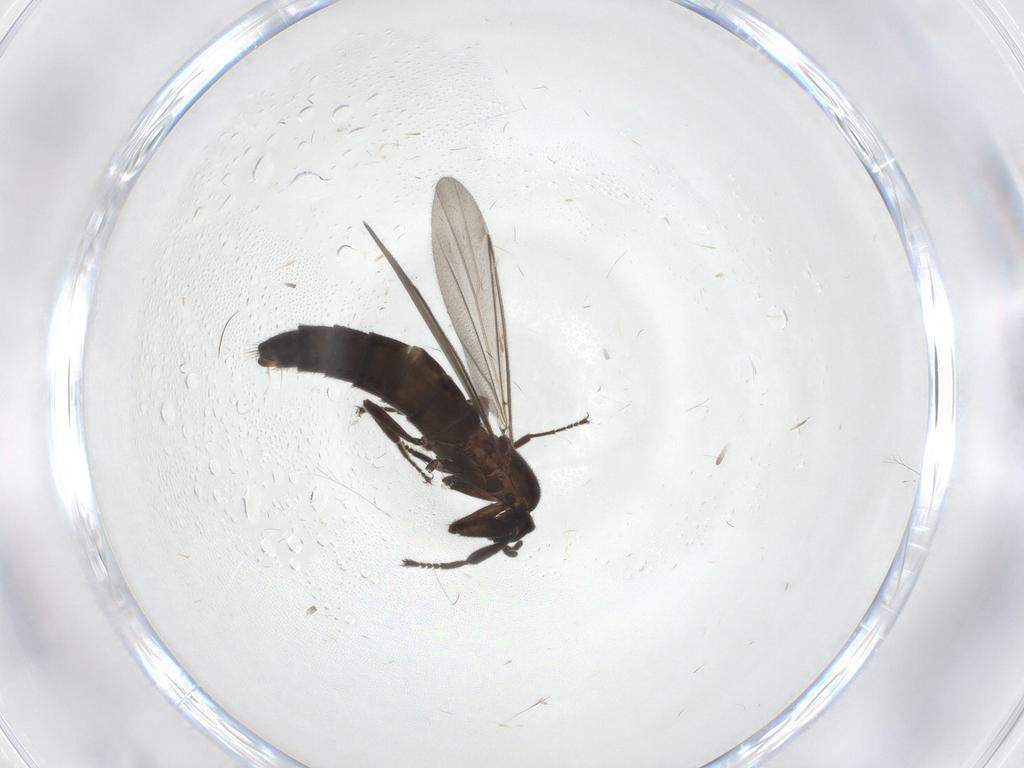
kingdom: Animalia
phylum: Arthropoda
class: Insecta
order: Diptera
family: Scatopsidae
